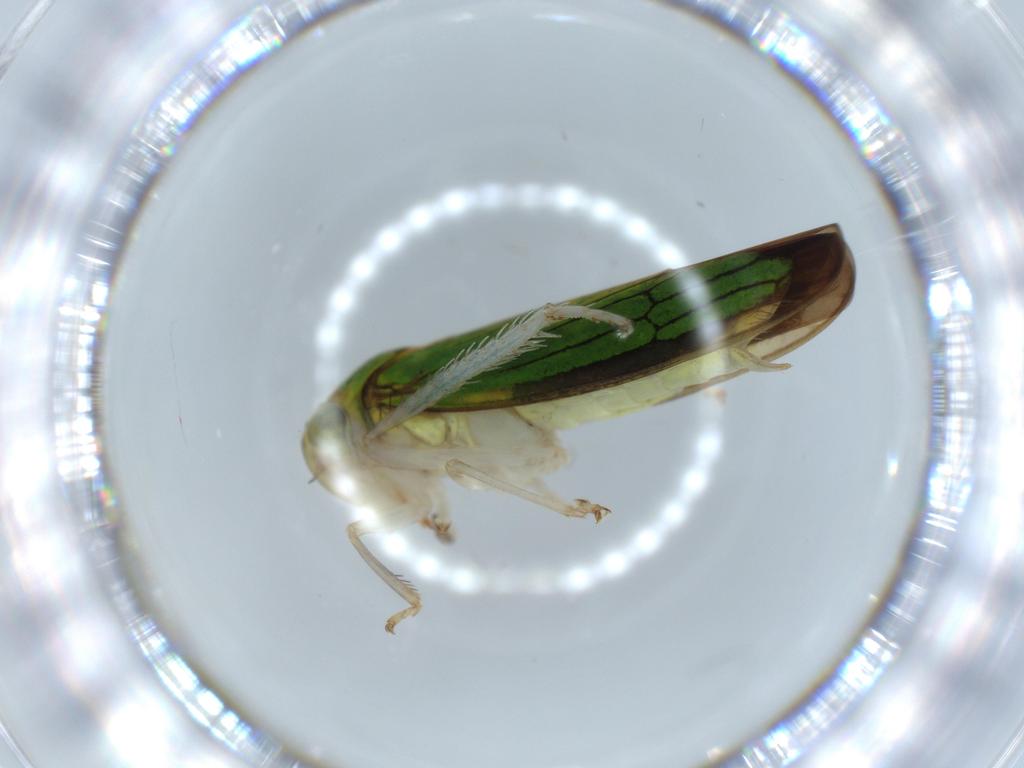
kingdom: Animalia
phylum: Arthropoda
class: Insecta
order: Hemiptera
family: Cicadellidae
